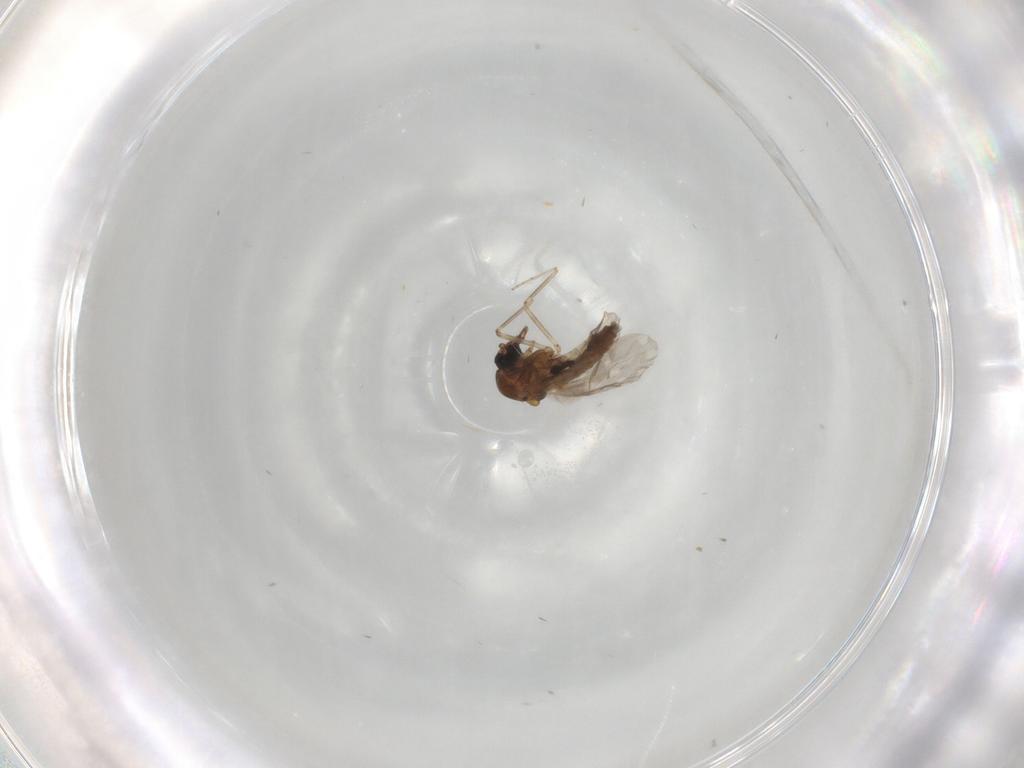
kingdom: Animalia
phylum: Arthropoda
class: Insecta
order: Diptera
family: Ceratopogonidae
